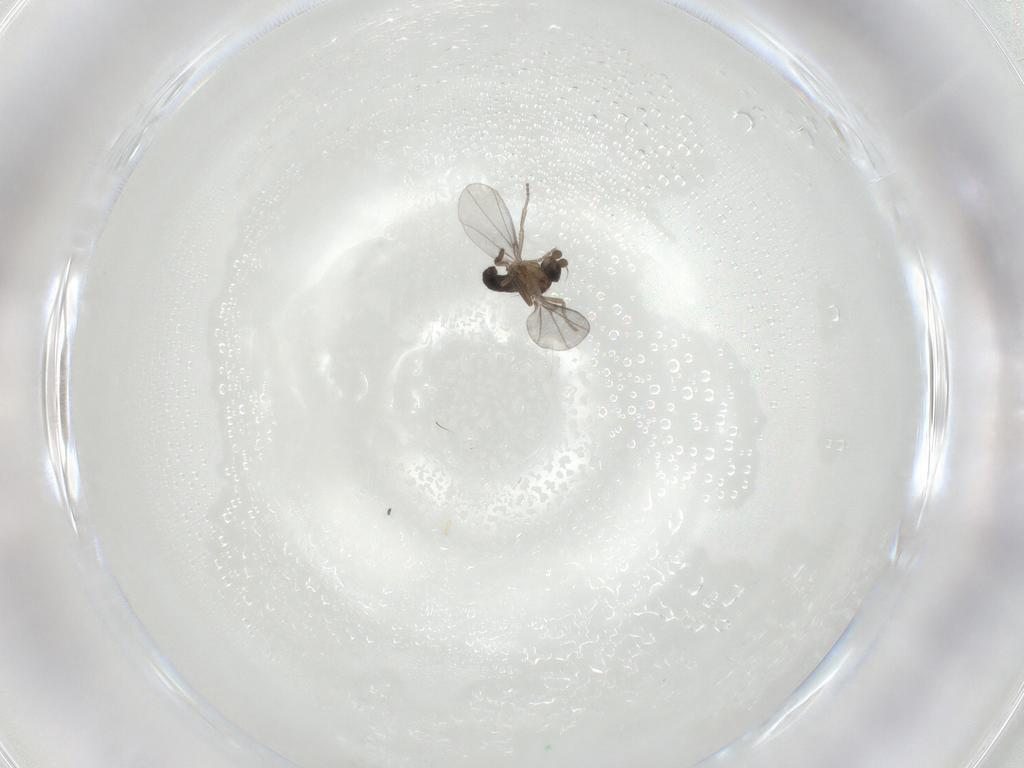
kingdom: Animalia
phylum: Arthropoda
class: Insecta
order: Diptera
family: Phoridae
